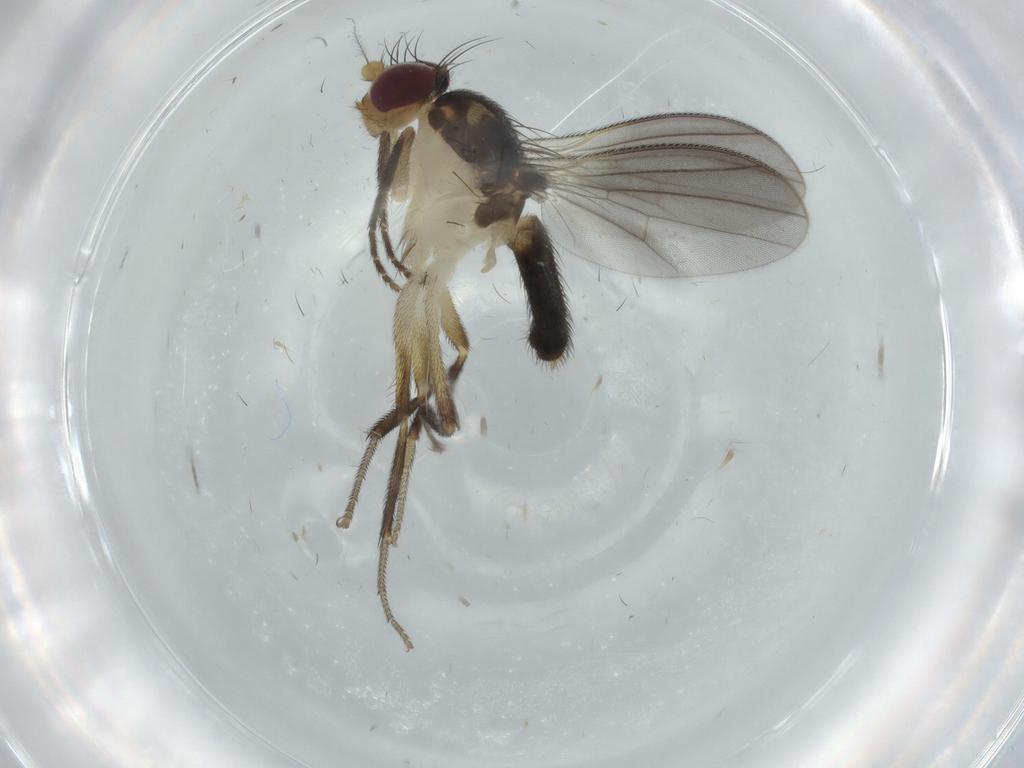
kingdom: Animalia
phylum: Arthropoda
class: Insecta
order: Diptera
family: Clusiidae
